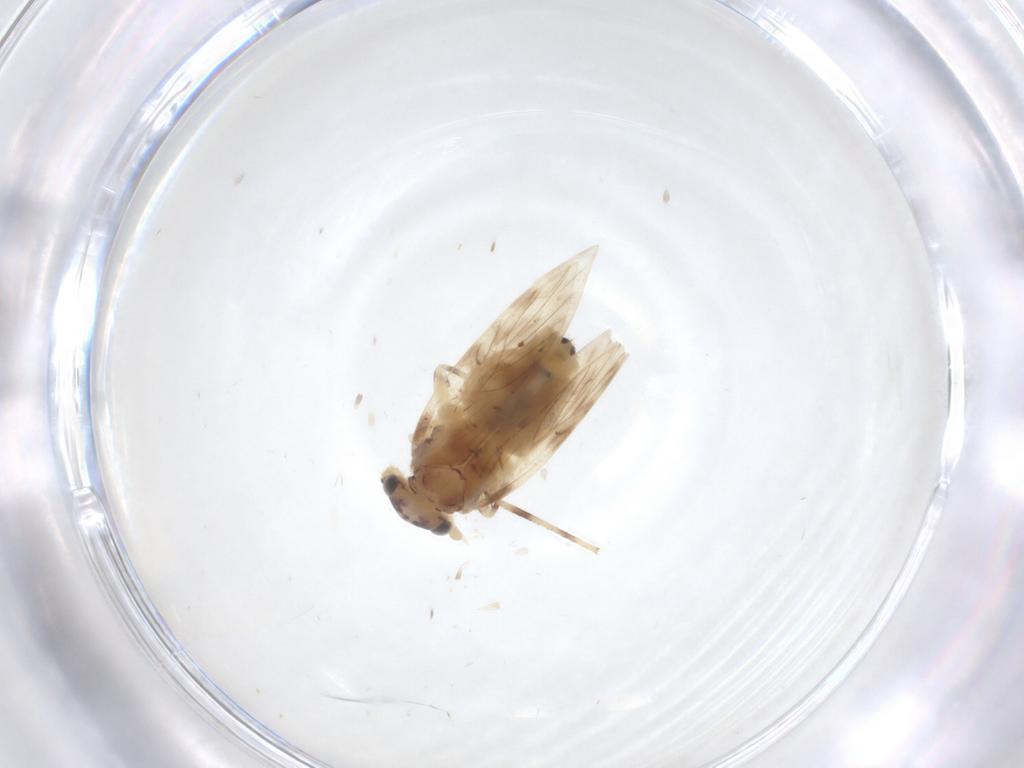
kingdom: Animalia
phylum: Arthropoda
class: Insecta
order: Psocodea
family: Lepidopsocidae
